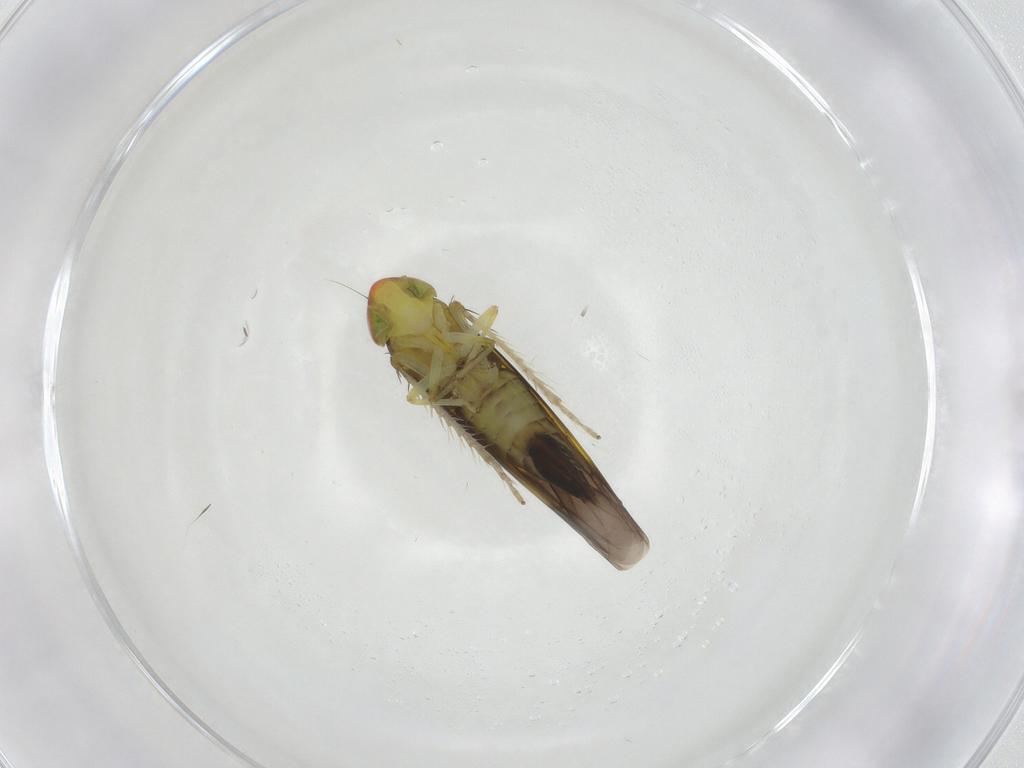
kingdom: Animalia
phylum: Arthropoda
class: Insecta
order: Hemiptera
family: Cicadellidae
